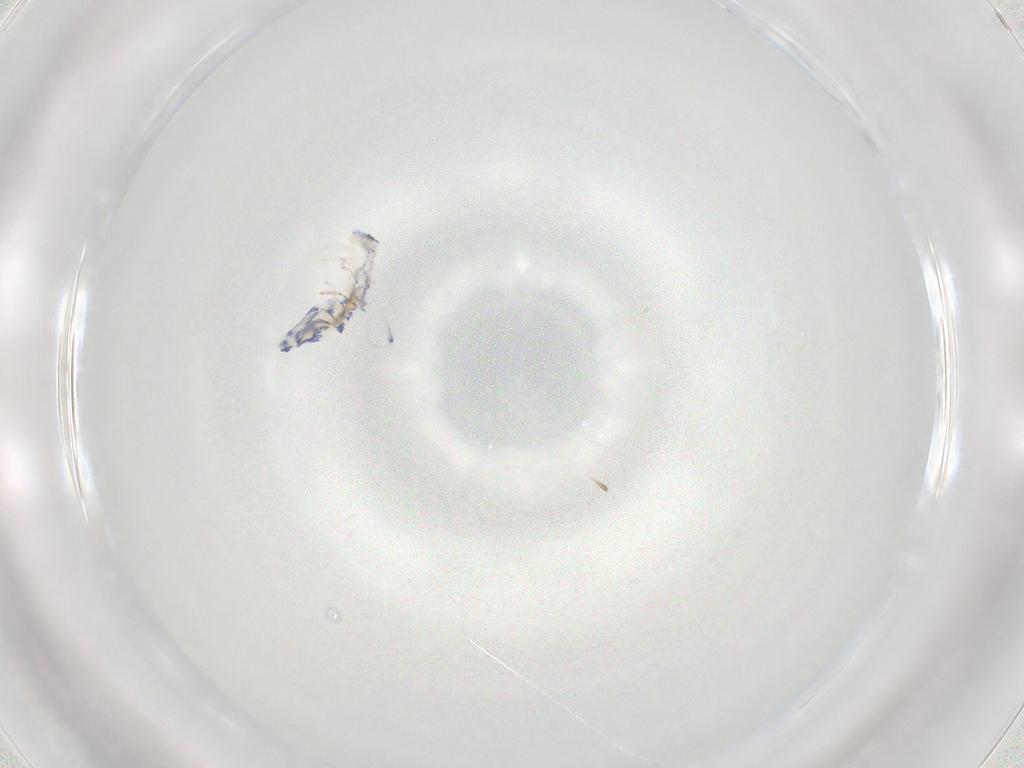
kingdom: Animalia
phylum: Arthropoda
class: Collembola
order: Entomobryomorpha
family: Entomobryidae
